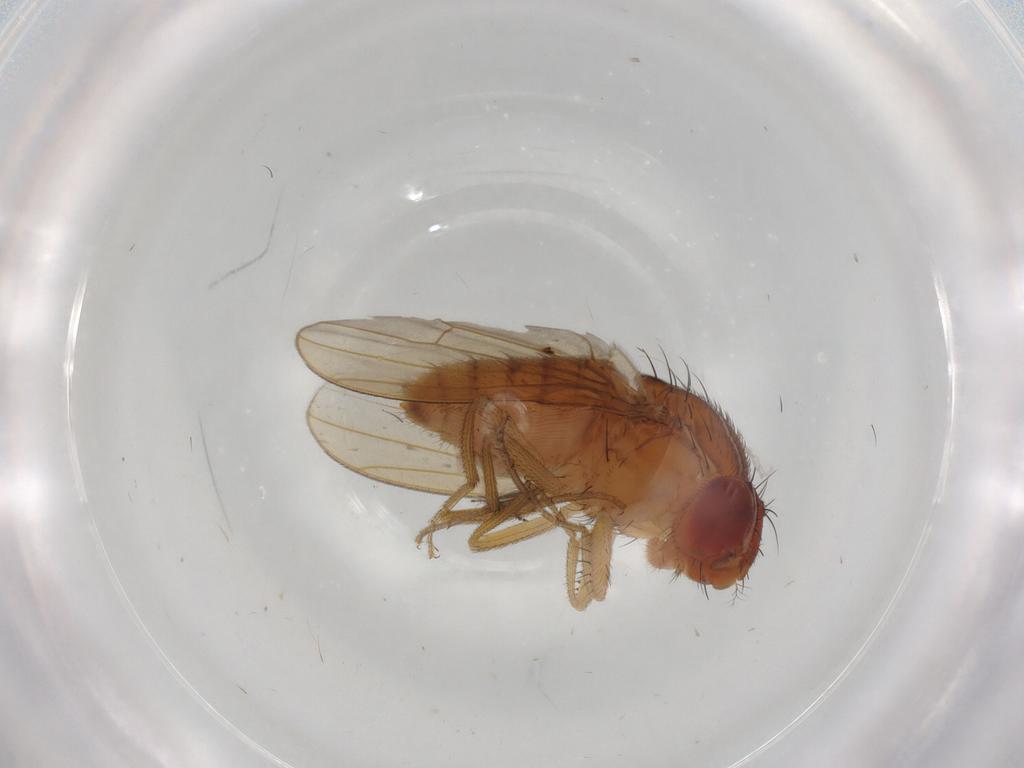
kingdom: Animalia
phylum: Arthropoda
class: Insecta
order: Diptera
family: Drosophilidae
